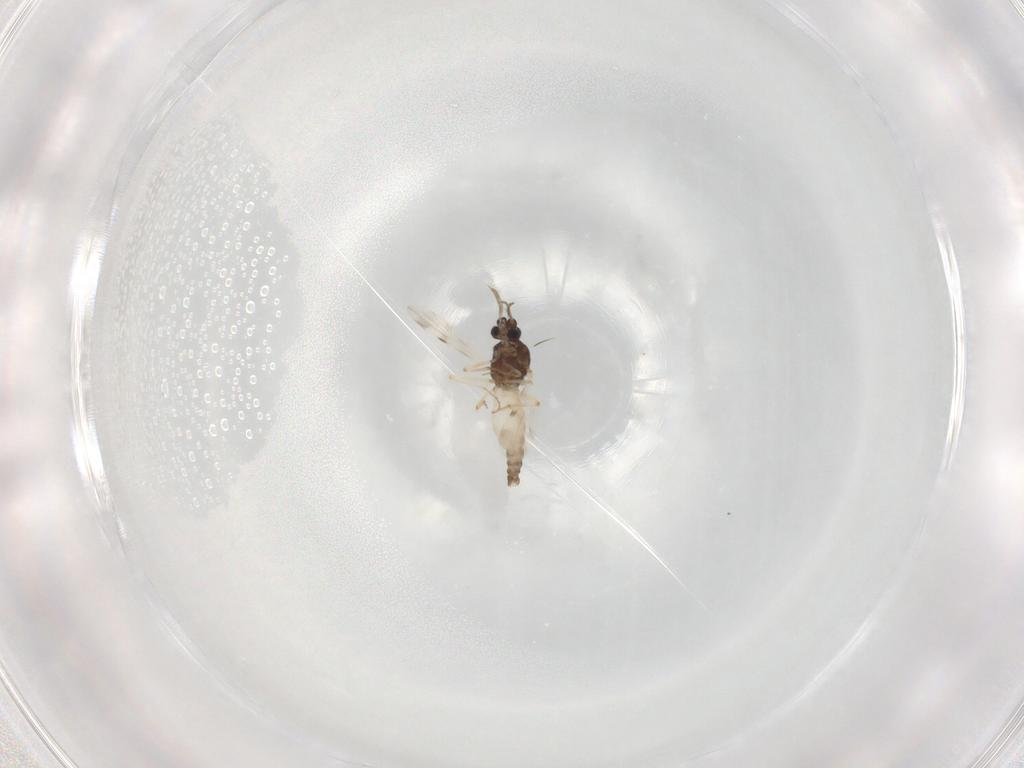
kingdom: Animalia
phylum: Arthropoda
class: Insecta
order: Diptera
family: Ceratopogonidae
